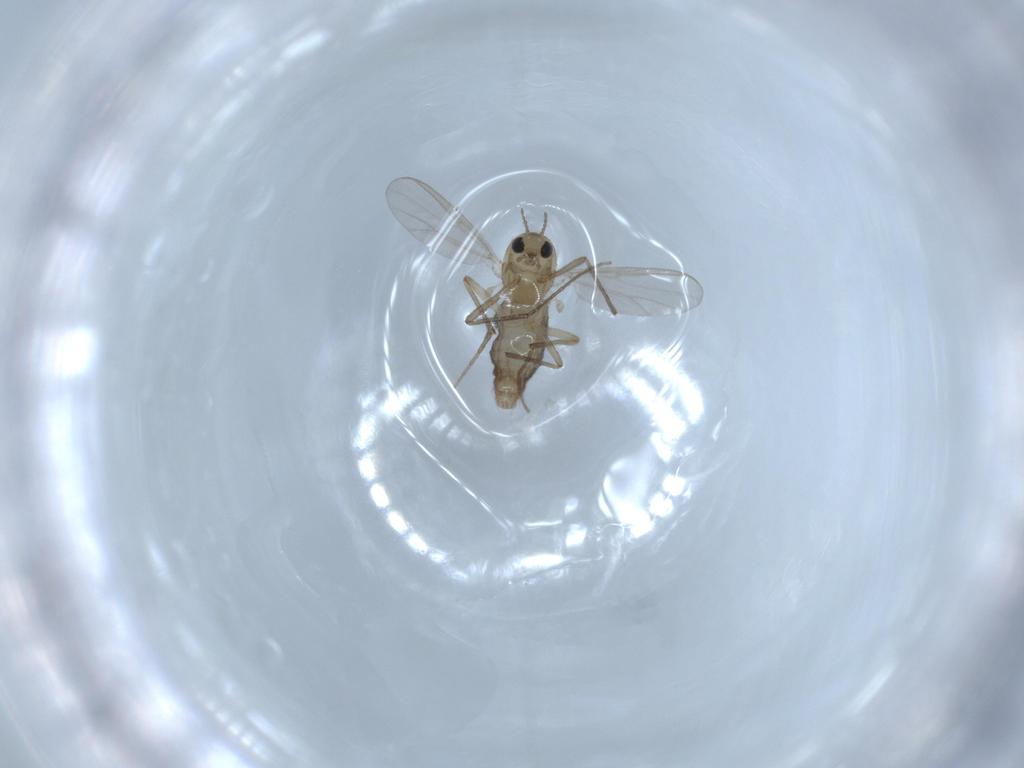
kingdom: Animalia
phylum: Arthropoda
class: Insecta
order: Diptera
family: Chironomidae
